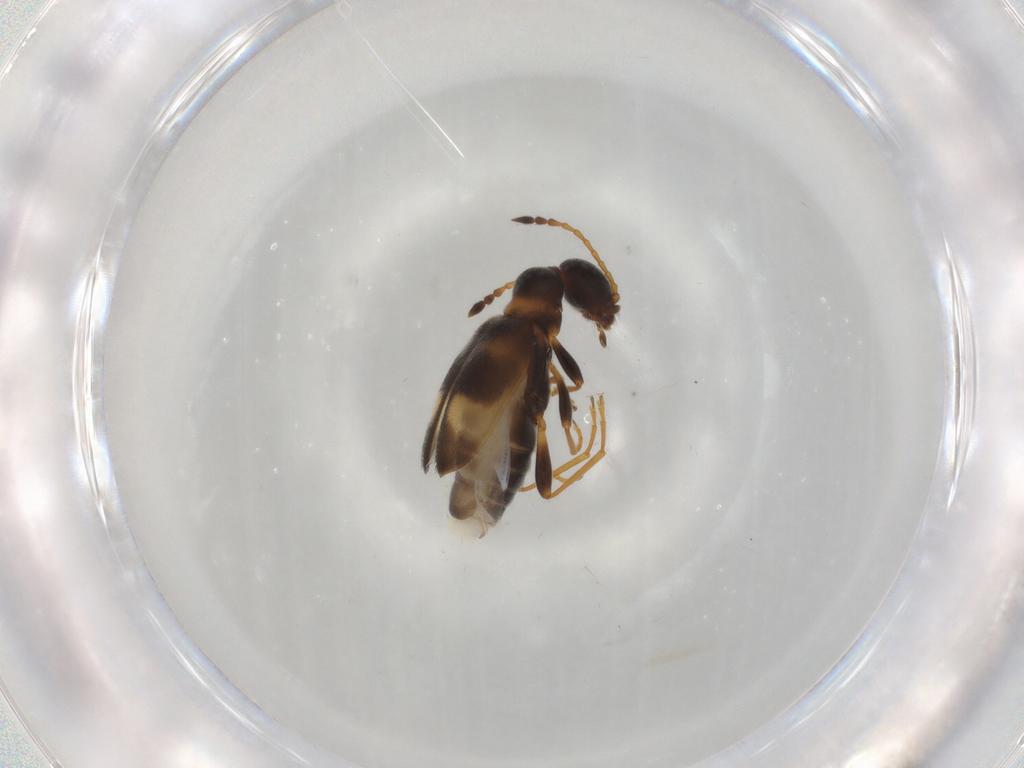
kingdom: Animalia
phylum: Arthropoda
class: Insecta
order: Coleoptera
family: Anthicidae
